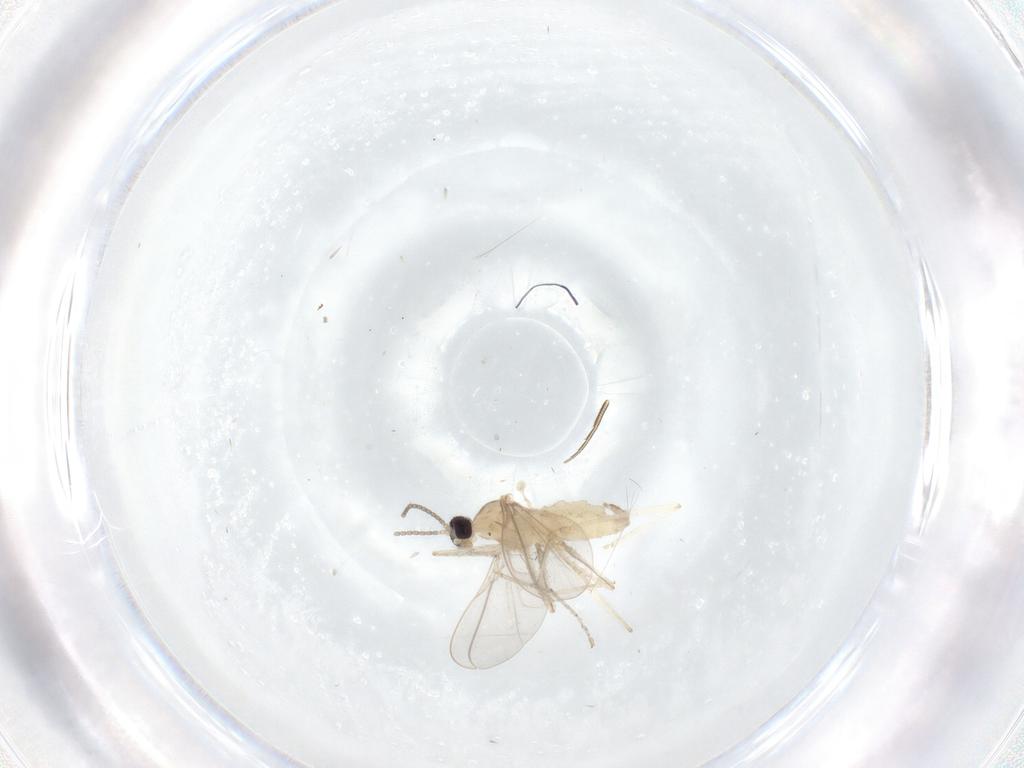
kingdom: Animalia
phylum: Arthropoda
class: Insecta
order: Diptera
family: Cecidomyiidae
